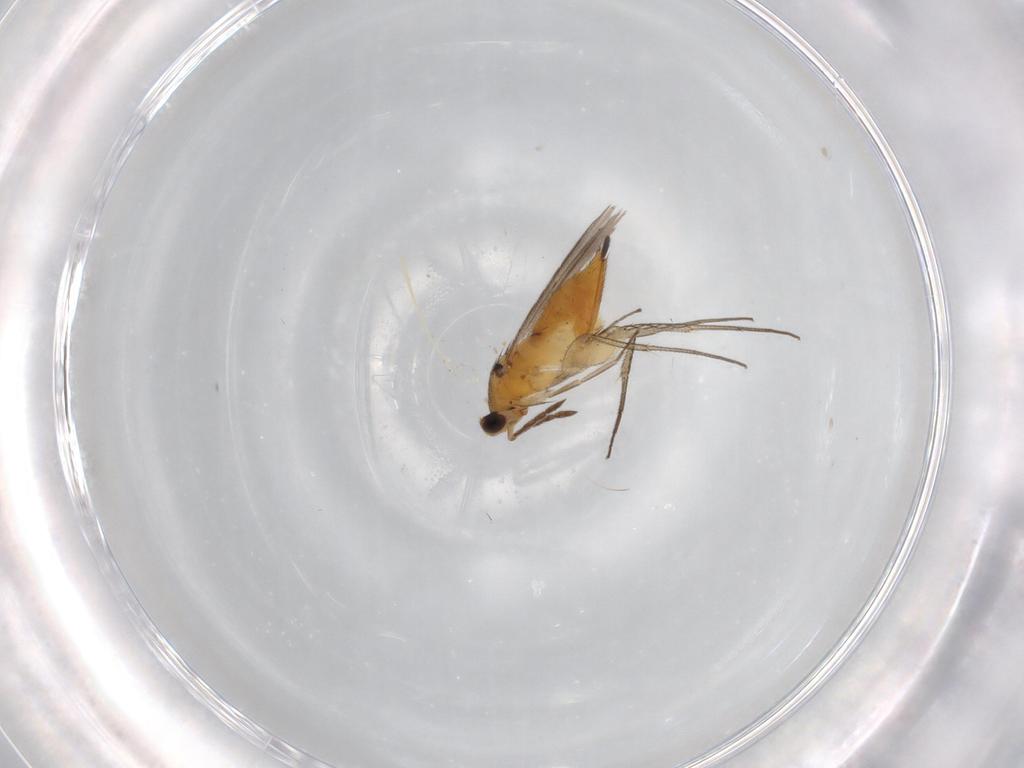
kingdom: Animalia
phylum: Arthropoda
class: Insecta
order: Hymenoptera
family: Eulophidae
